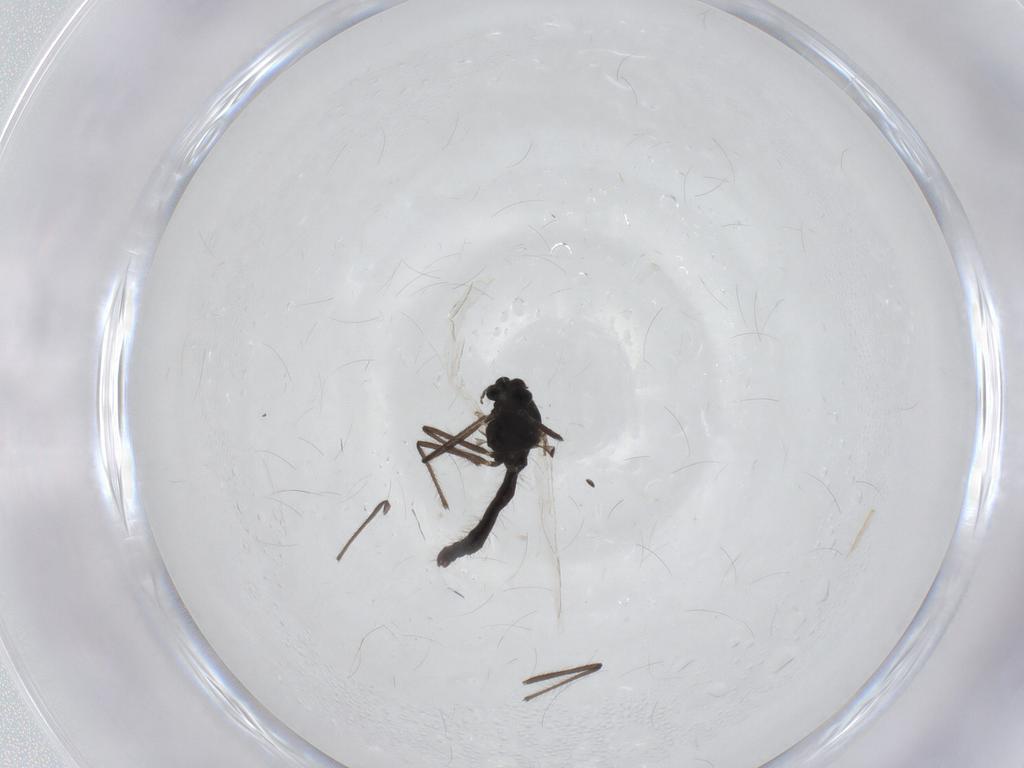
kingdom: Animalia
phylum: Arthropoda
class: Insecta
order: Diptera
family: Chironomidae
